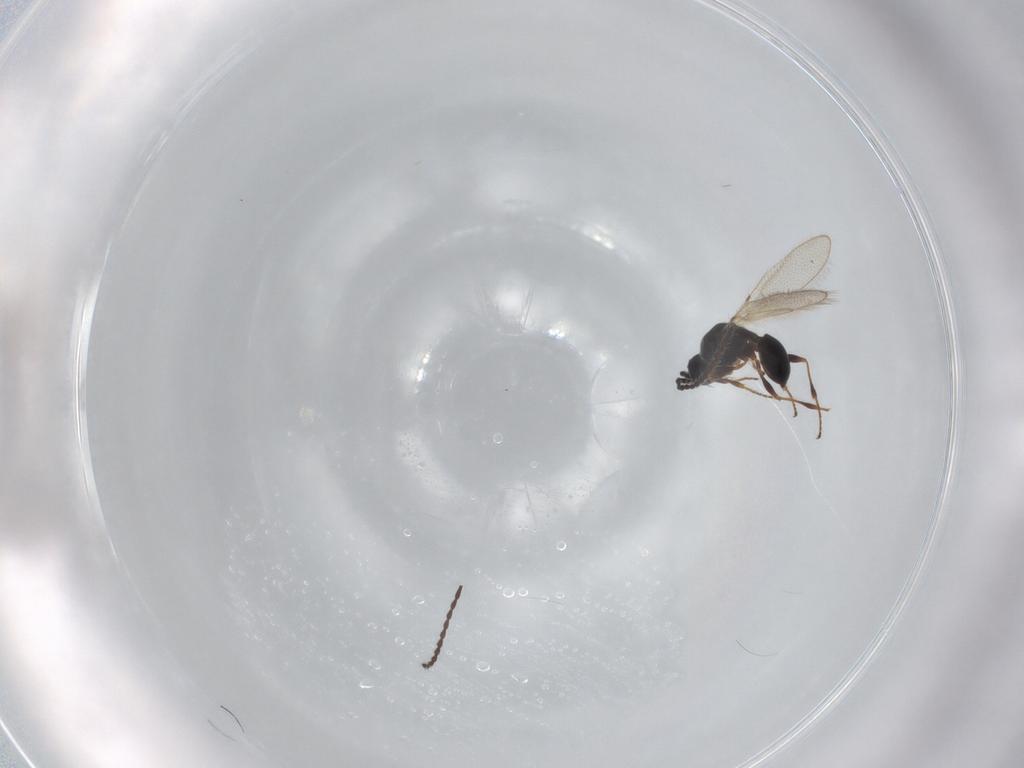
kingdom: Animalia
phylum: Arthropoda
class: Insecta
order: Hymenoptera
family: Diapriidae
